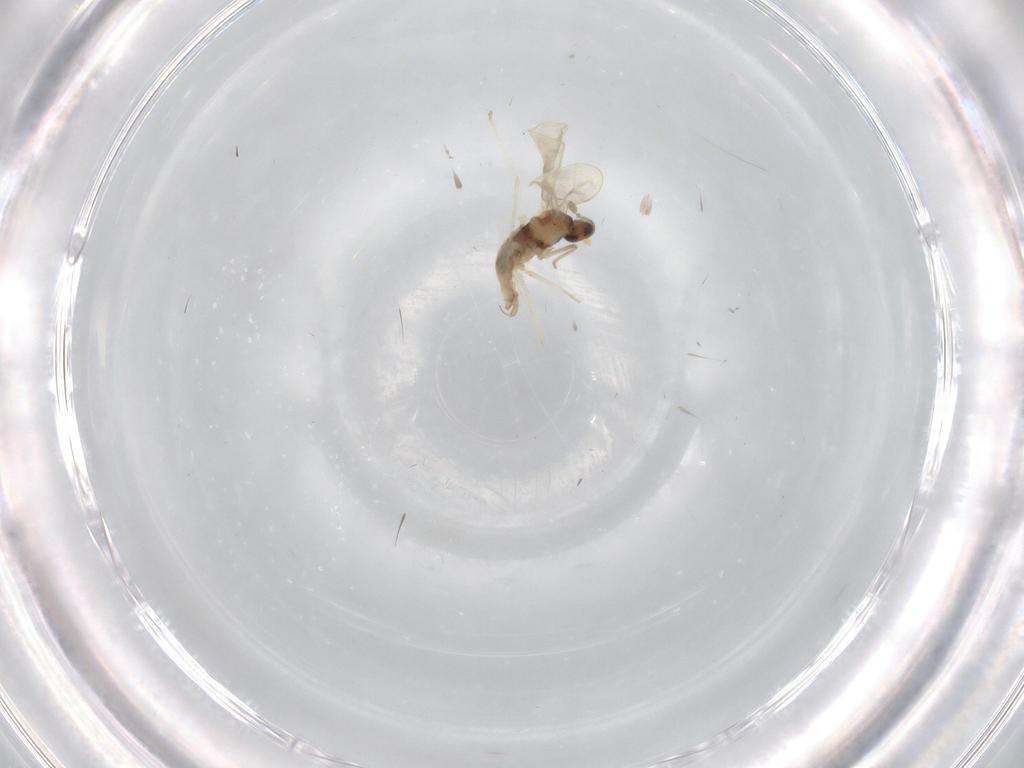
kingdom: Animalia
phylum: Arthropoda
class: Insecta
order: Diptera
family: Cecidomyiidae
